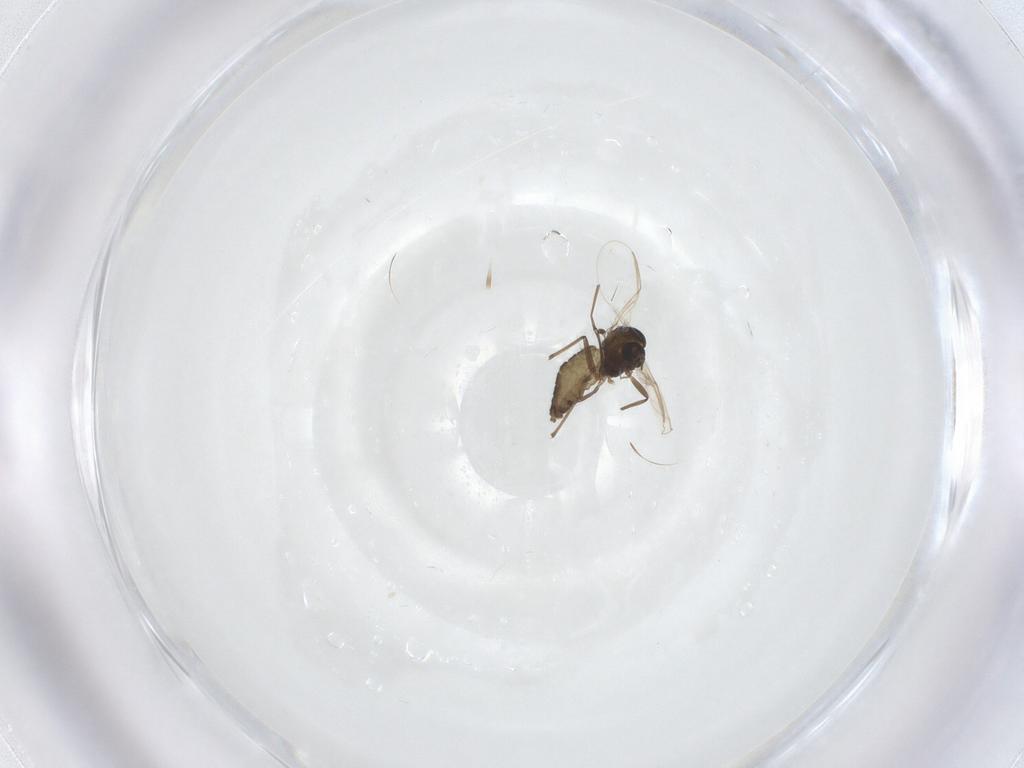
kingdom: Animalia
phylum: Arthropoda
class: Insecta
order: Diptera
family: Chironomidae
